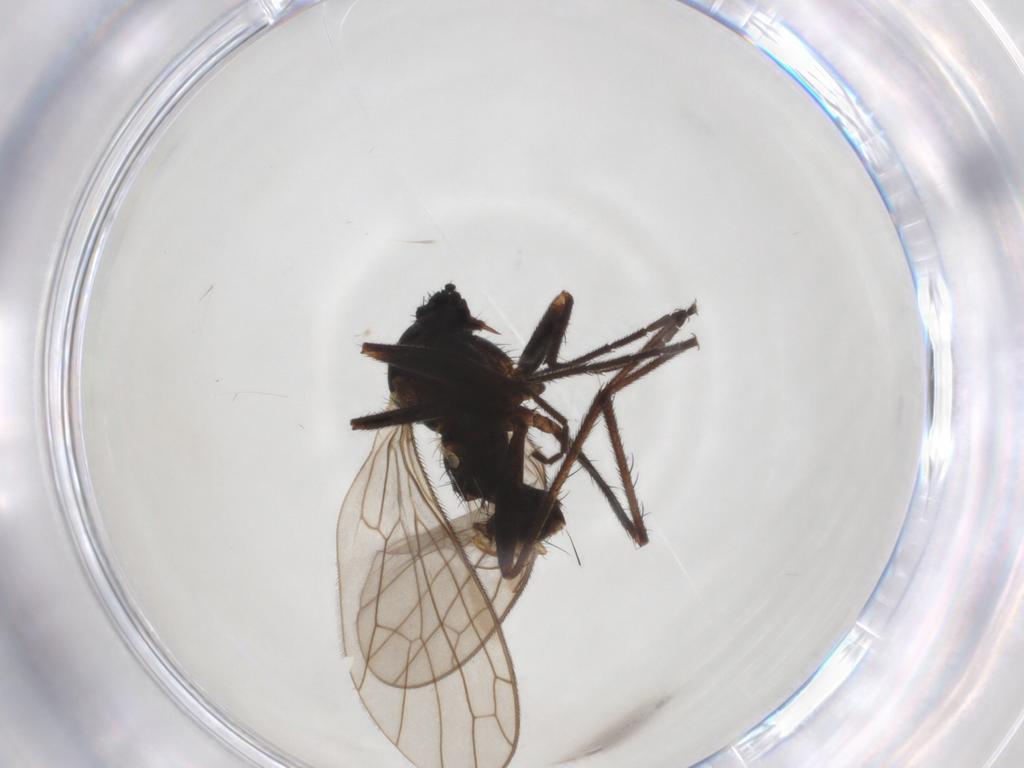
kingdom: Animalia
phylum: Arthropoda
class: Insecta
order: Diptera
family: Empididae
